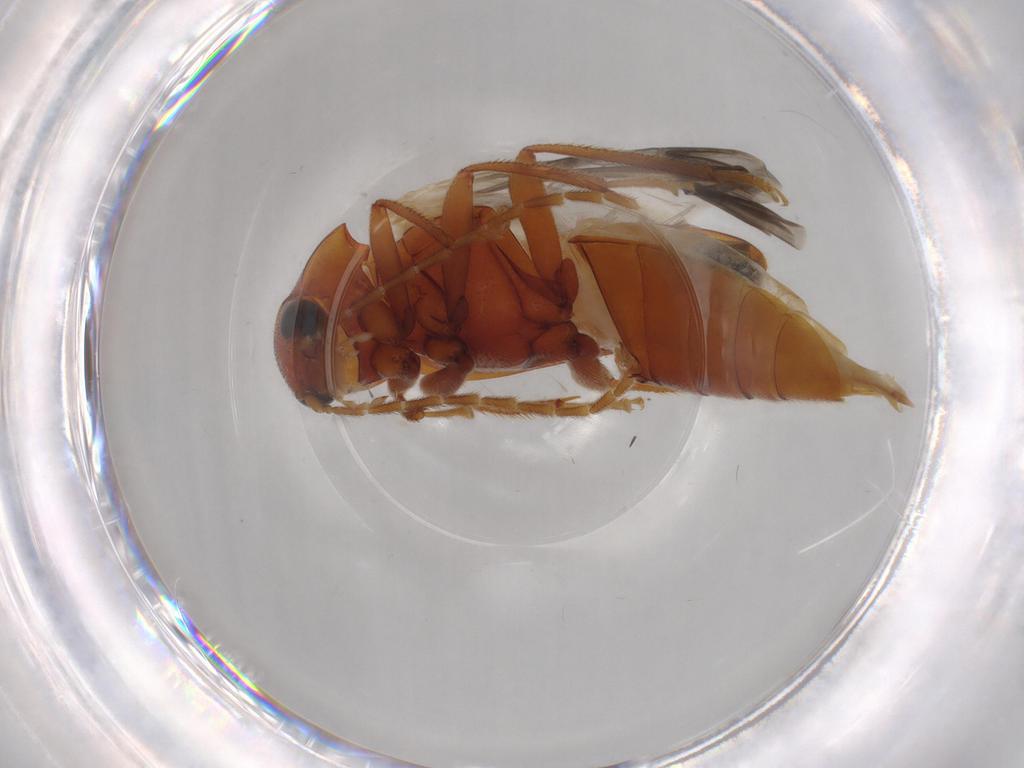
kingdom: Animalia
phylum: Arthropoda
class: Insecta
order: Coleoptera
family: Ptilodactylidae
